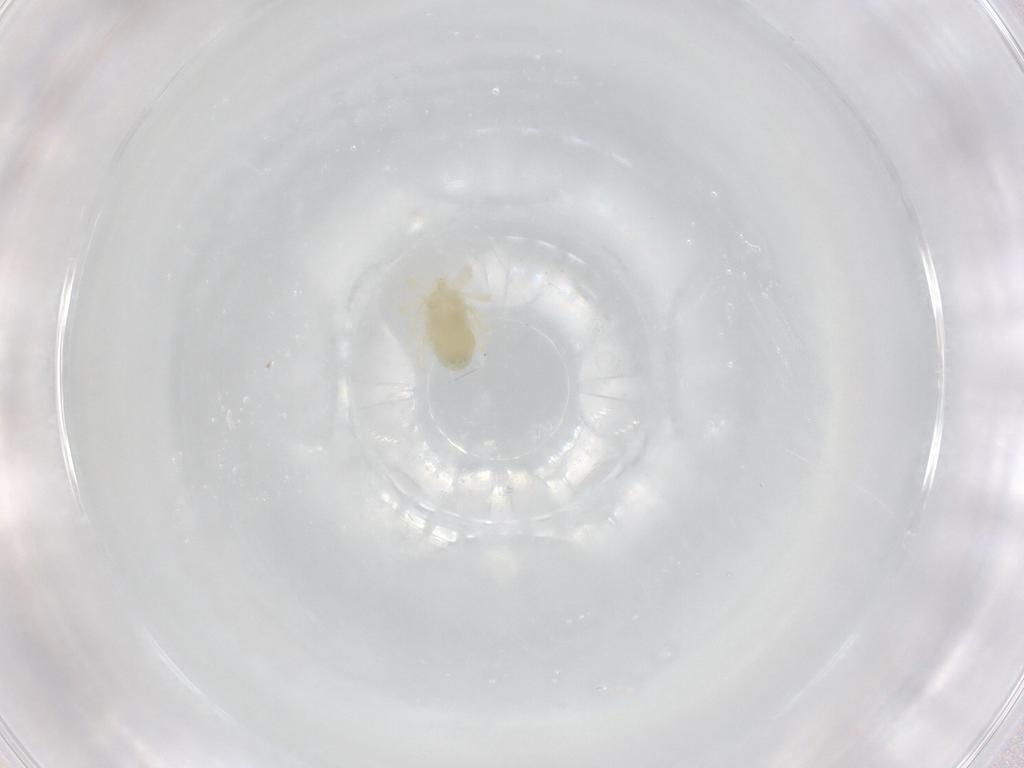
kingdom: Animalia
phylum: Arthropoda
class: Arachnida
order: Trombidiformes
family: Anystidae
